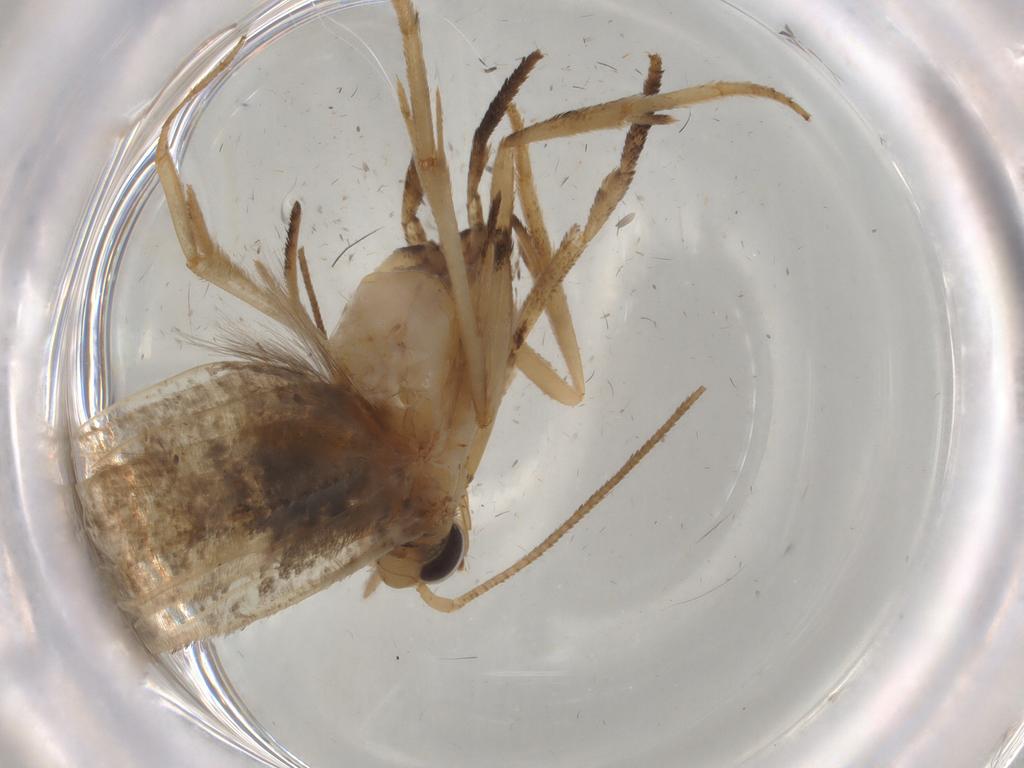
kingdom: Animalia
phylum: Arthropoda
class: Insecta
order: Lepidoptera
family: Yponomeutidae
